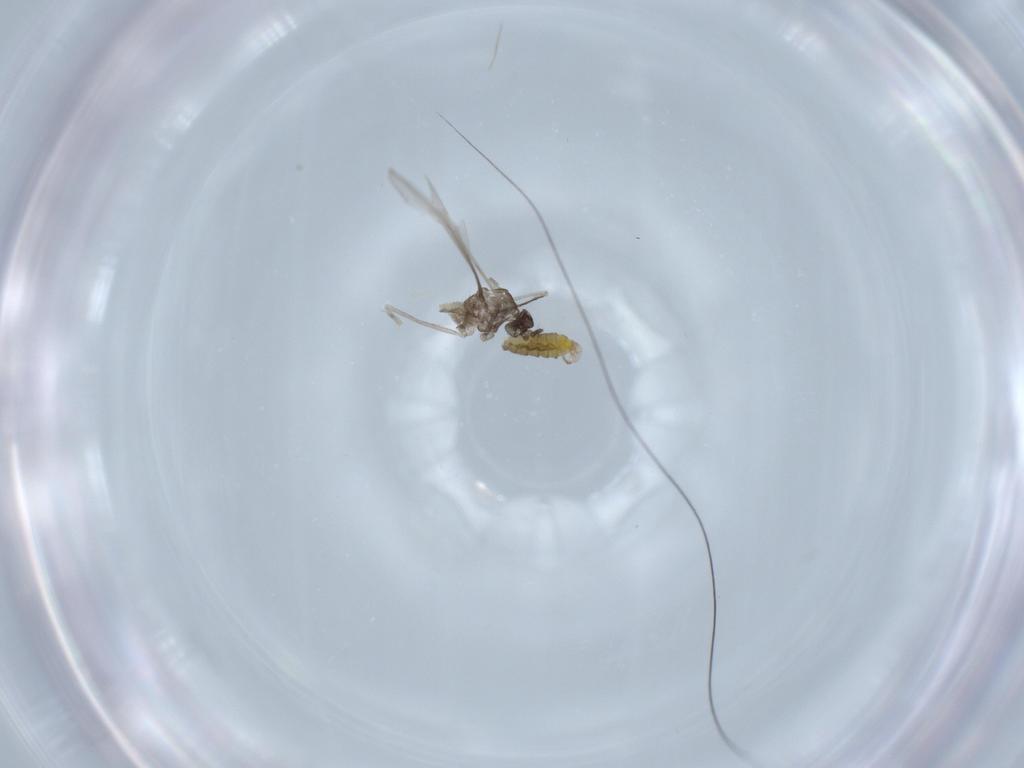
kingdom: Animalia
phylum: Arthropoda
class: Insecta
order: Diptera
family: Cecidomyiidae
